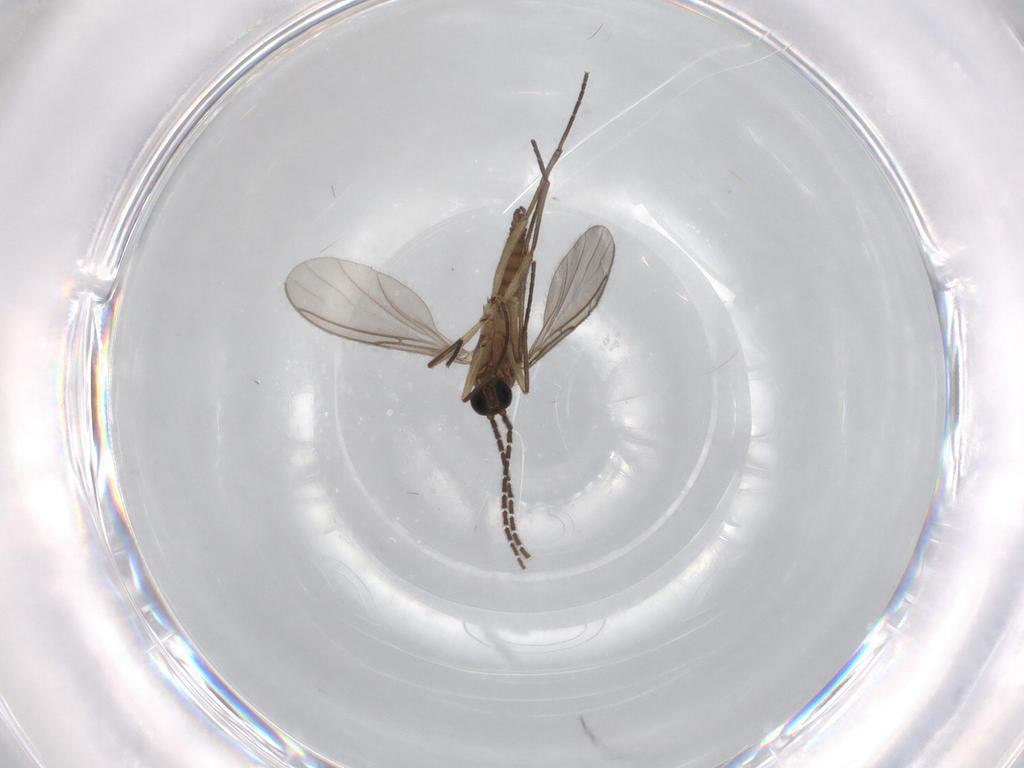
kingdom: Animalia
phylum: Arthropoda
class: Insecta
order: Diptera
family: Sciaridae
